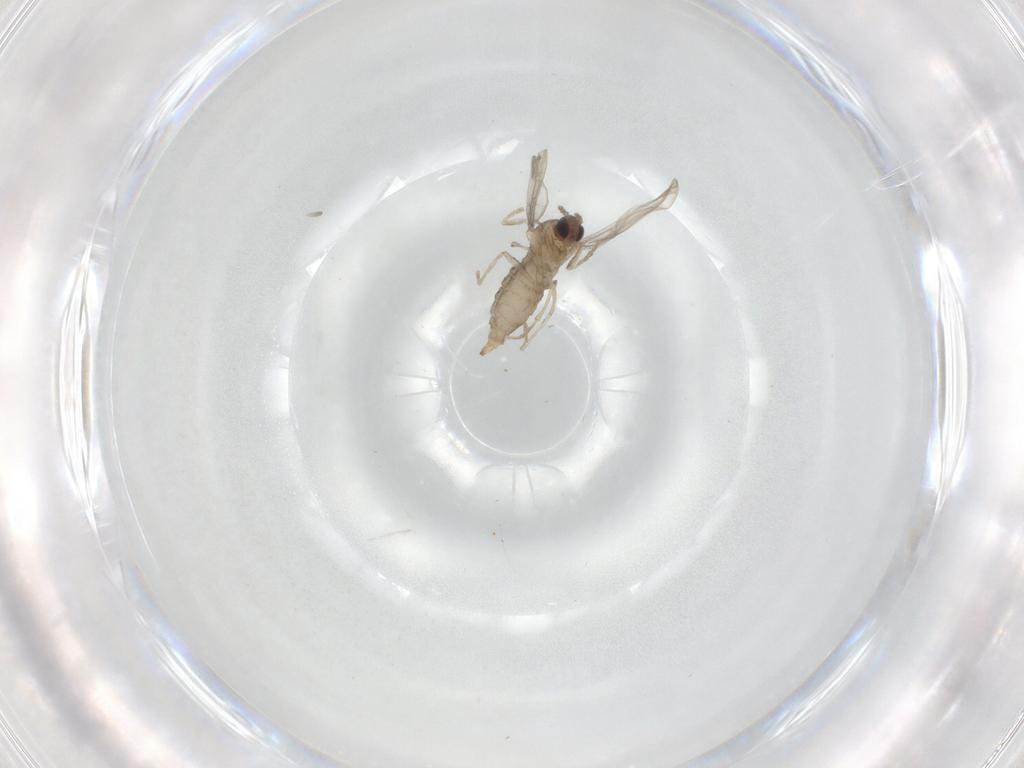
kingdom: Animalia
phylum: Arthropoda
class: Insecta
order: Diptera
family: Cecidomyiidae
